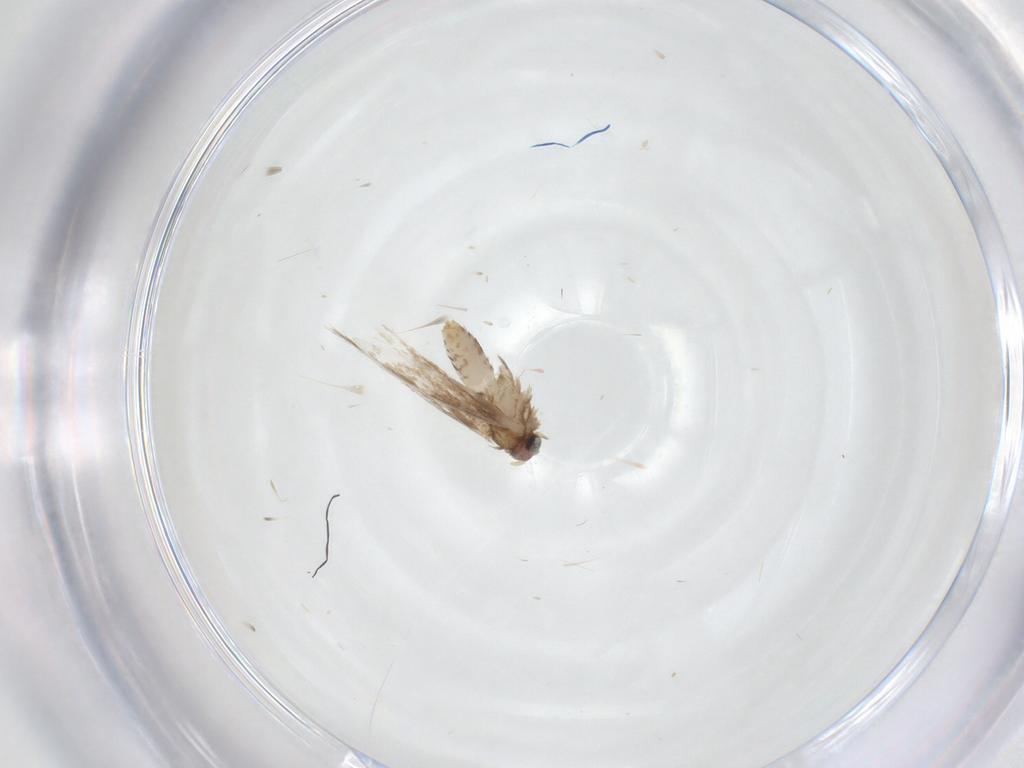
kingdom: Animalia
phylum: Arthropoda
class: Insecta
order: Lepidoptera
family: Nepticulidae
